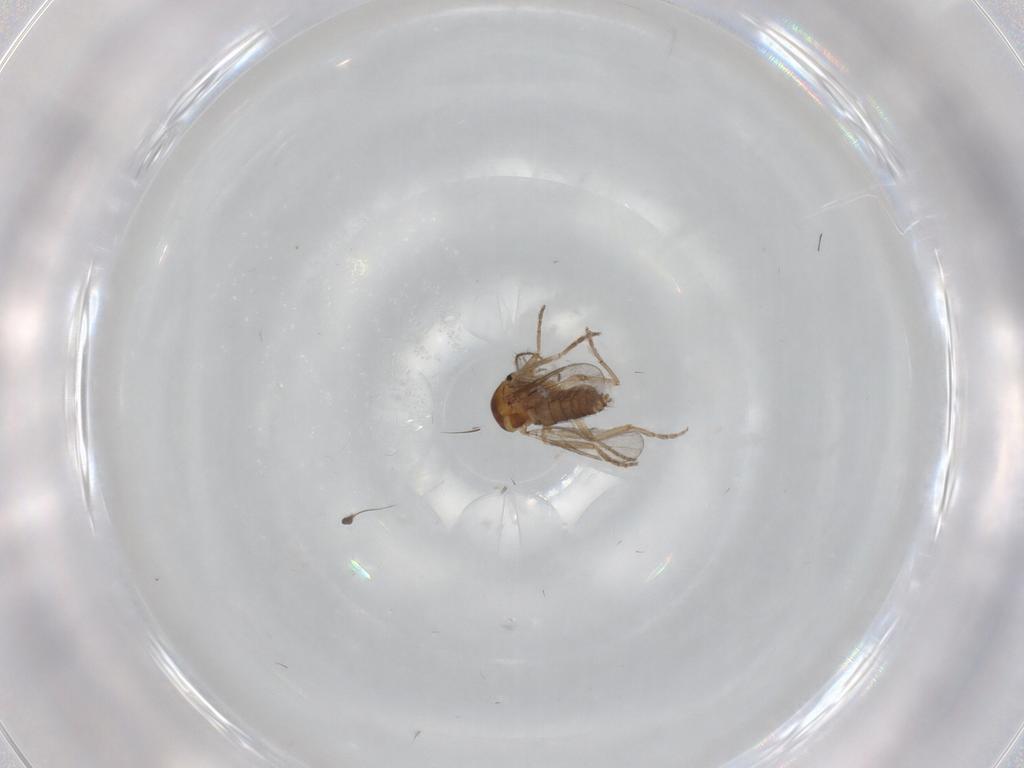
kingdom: Animalia
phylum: Arthropoda
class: Insecta
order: Diptera
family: Ceratopogonidae
